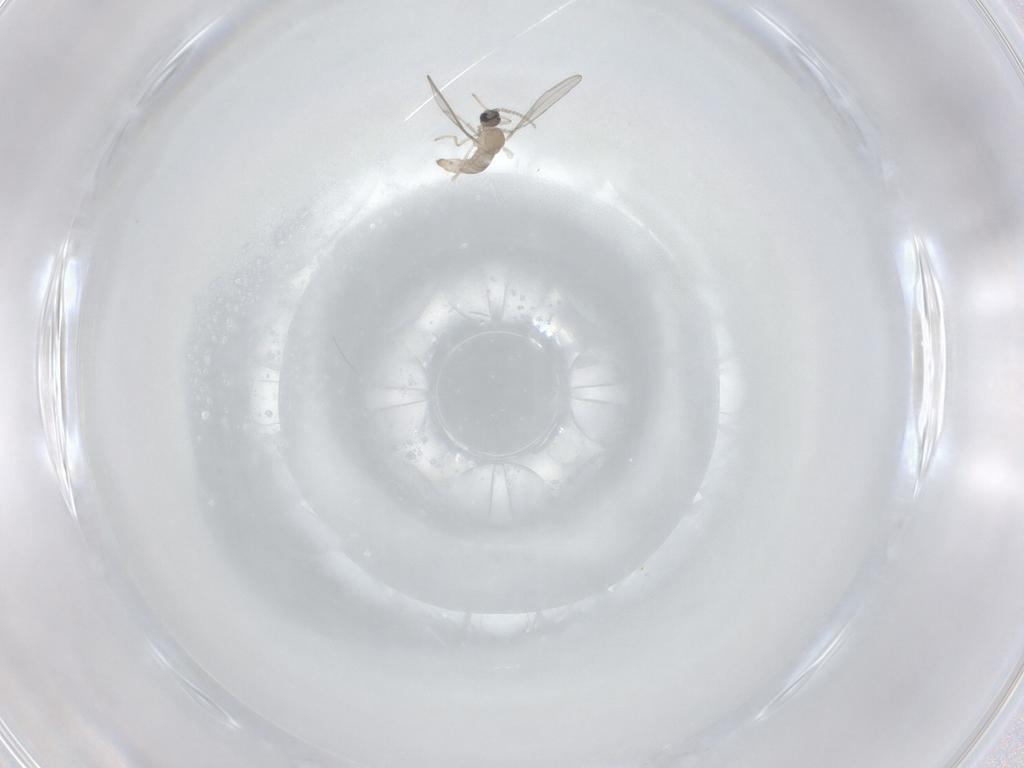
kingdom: Animalia
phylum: Arthropoda
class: Insecta
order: Diptera
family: Cecidomyiidae
